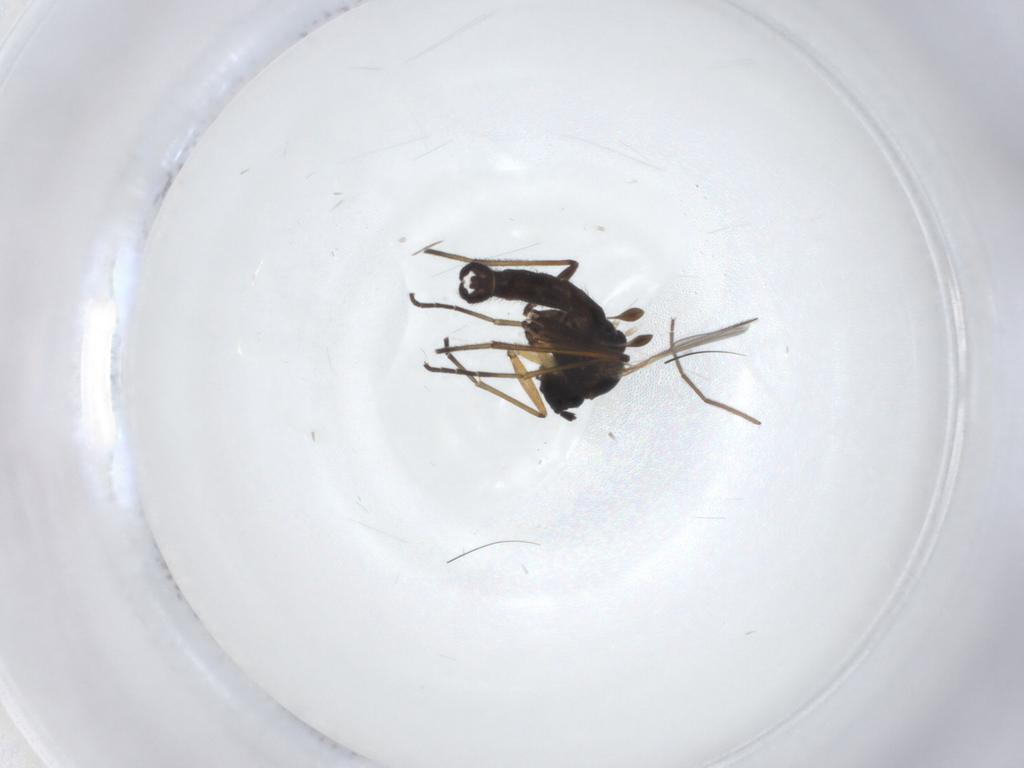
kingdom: Animalia
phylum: Arthropoda
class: Insecta
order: Diptera
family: Sciaridae
